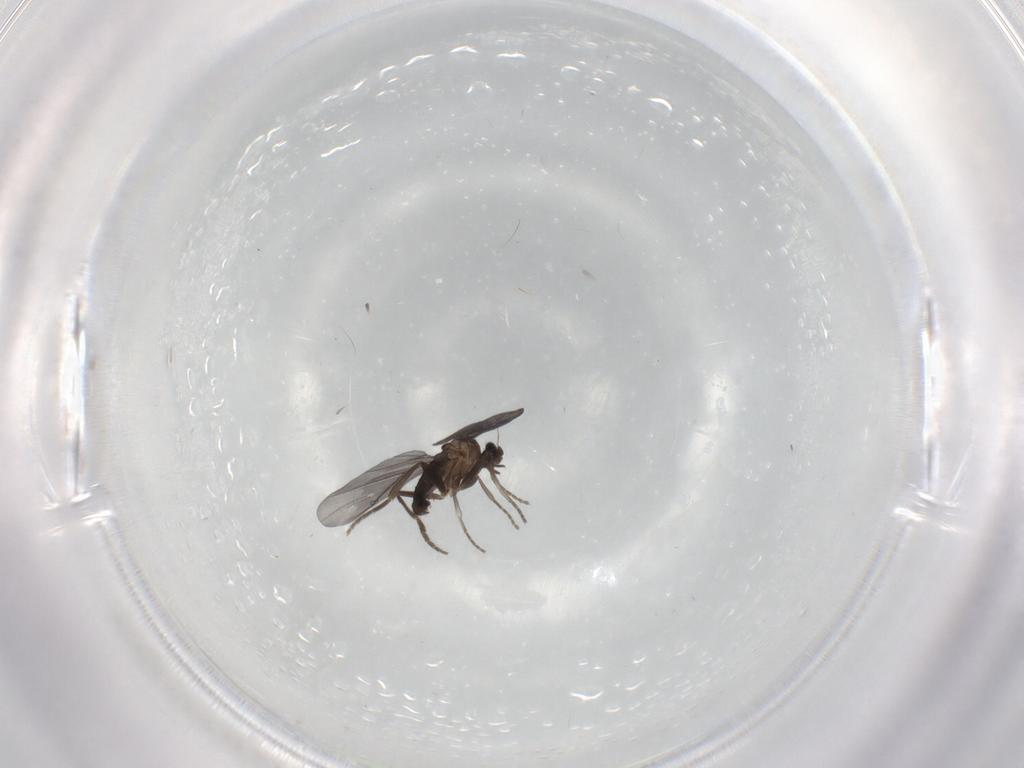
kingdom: Animalia
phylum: Arthropoda
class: Insecta
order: Diptera
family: Phoridae
